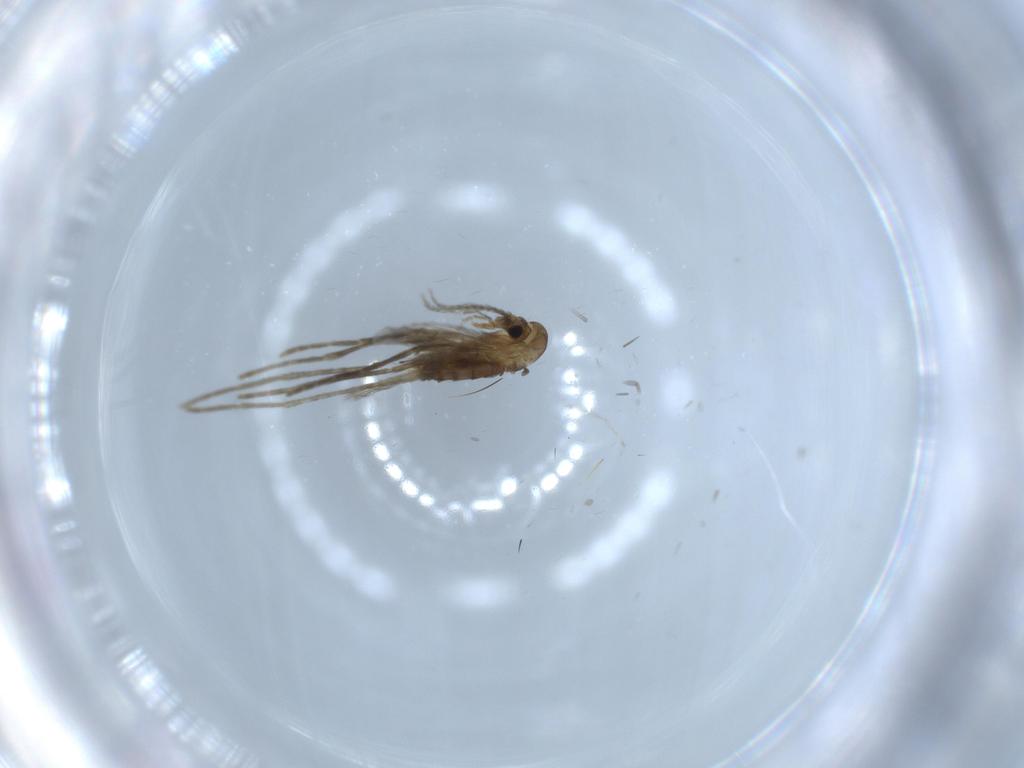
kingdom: Animalia
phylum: Arthropoda
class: Insecta
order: Diptera
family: Psychodidae
